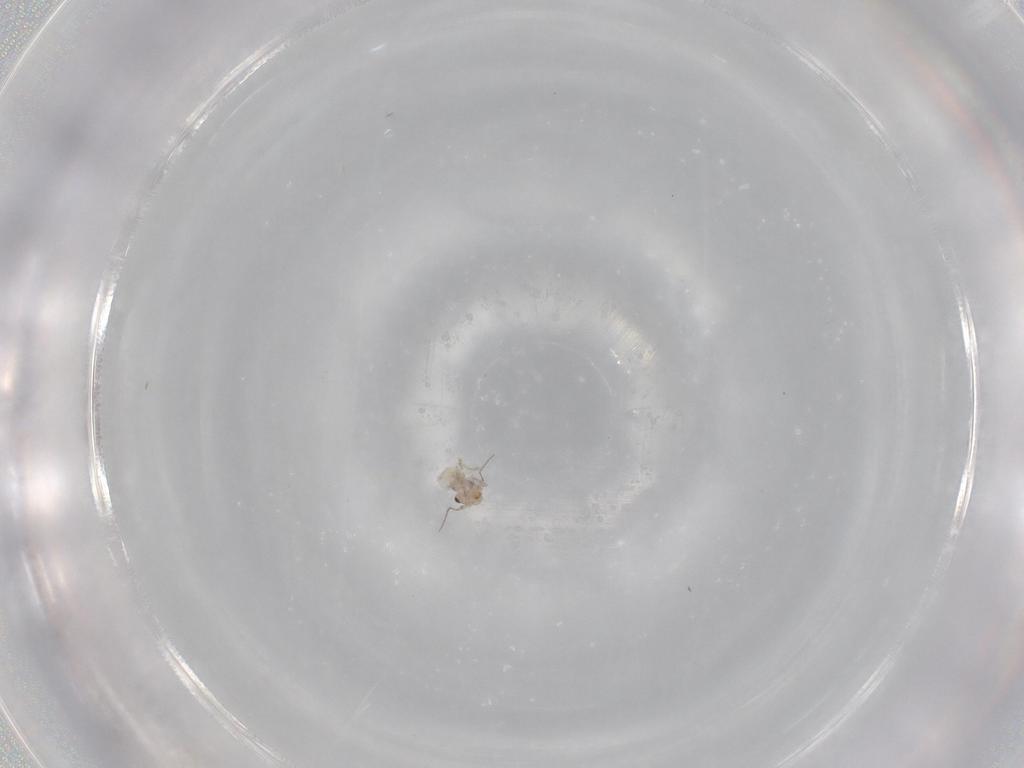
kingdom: Animalia
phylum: Arthropoda
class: Insecta
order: Psocodea
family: Lepidopsocidae
